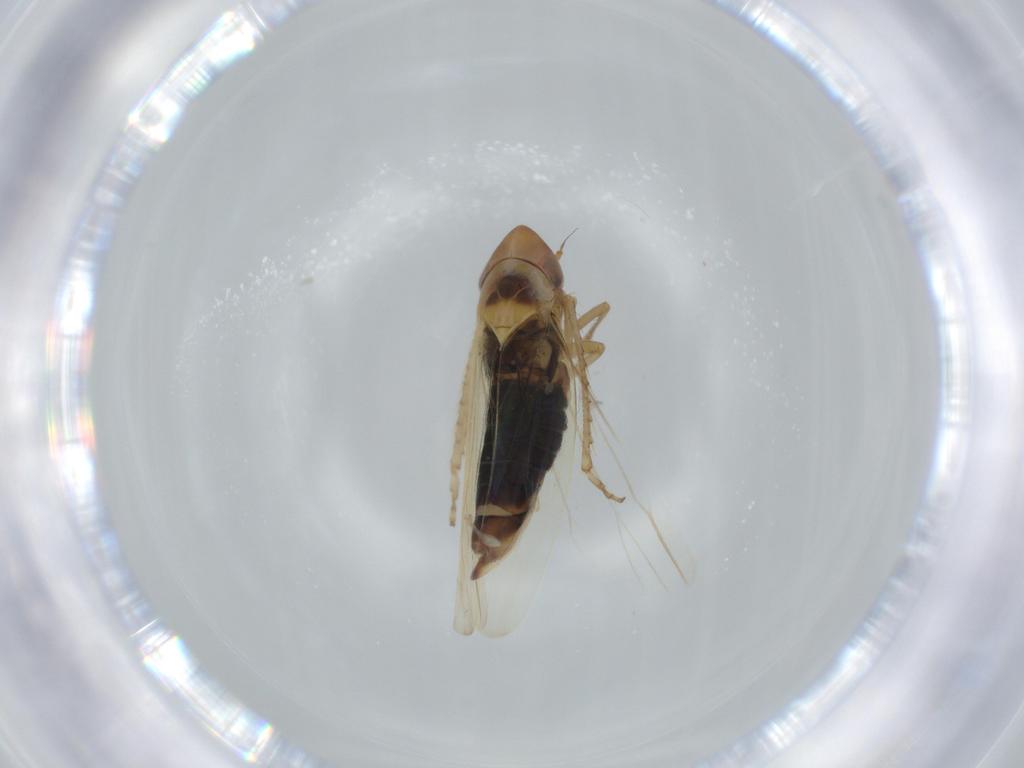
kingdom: Animalia
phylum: Arthropoda
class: Insecta
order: Hemiptera
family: Cicadellidae
